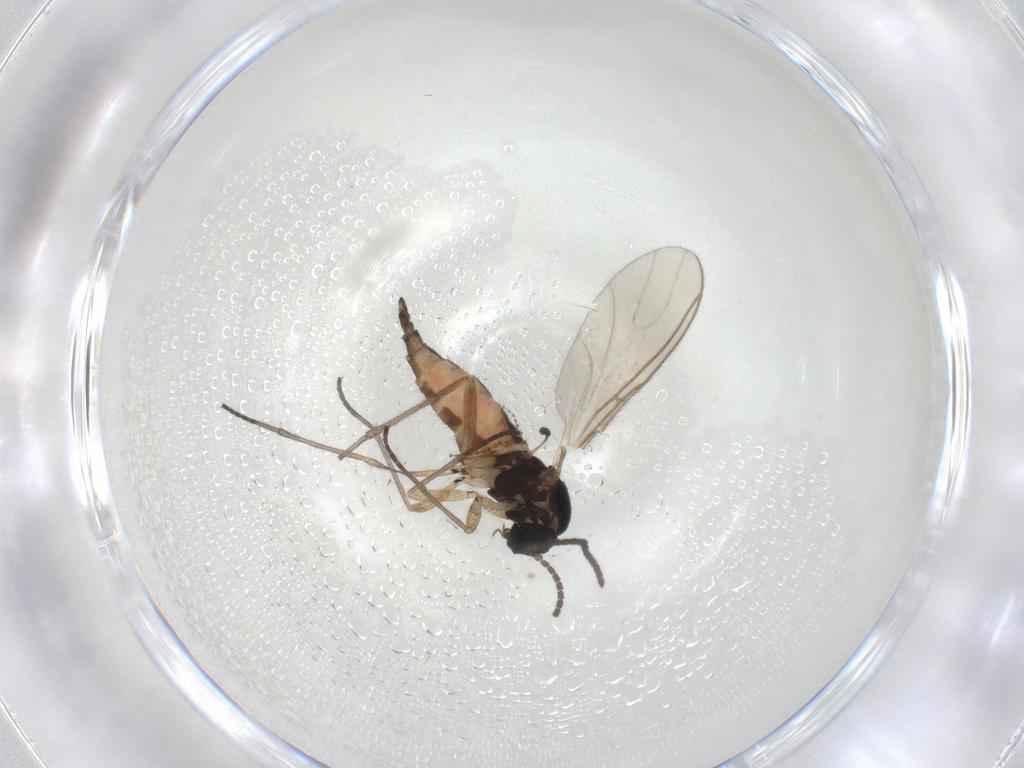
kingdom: Animalia
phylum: Arthropoda
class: Insecta
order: Diptera
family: Sciaridae
